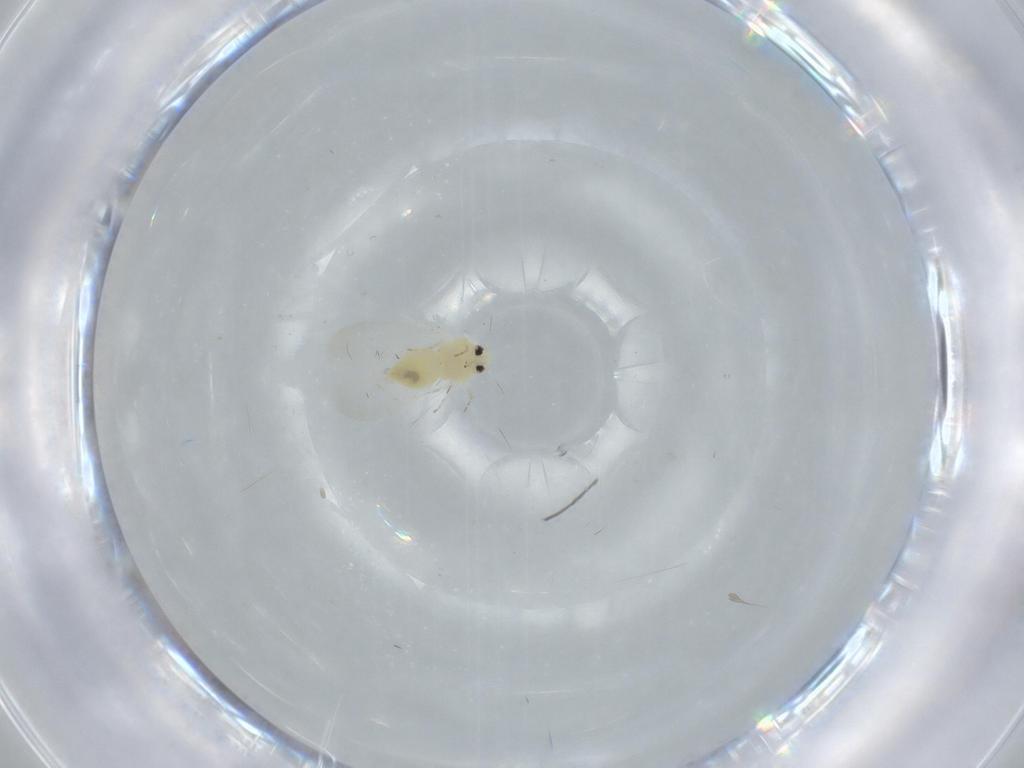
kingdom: Animalia
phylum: Arthropoda
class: Insecta
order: Hemiptera
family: Aleyrodidae
